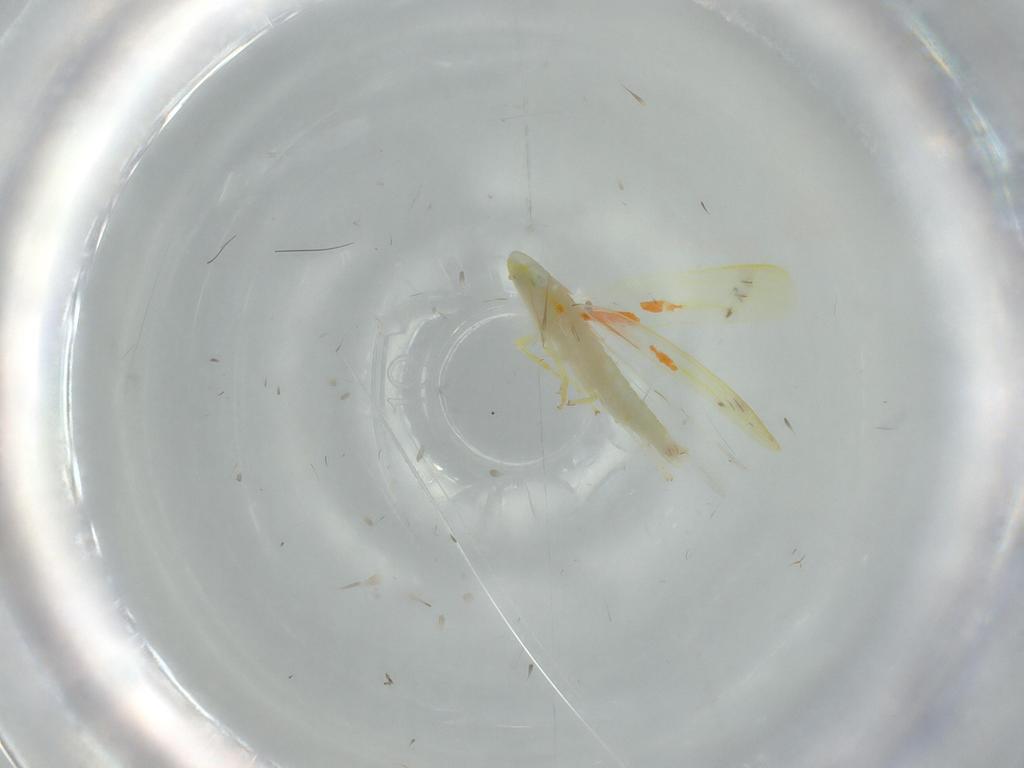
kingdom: Animalia
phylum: Arthropoda
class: Insecta
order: Hemiptera
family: Cicadellidae
